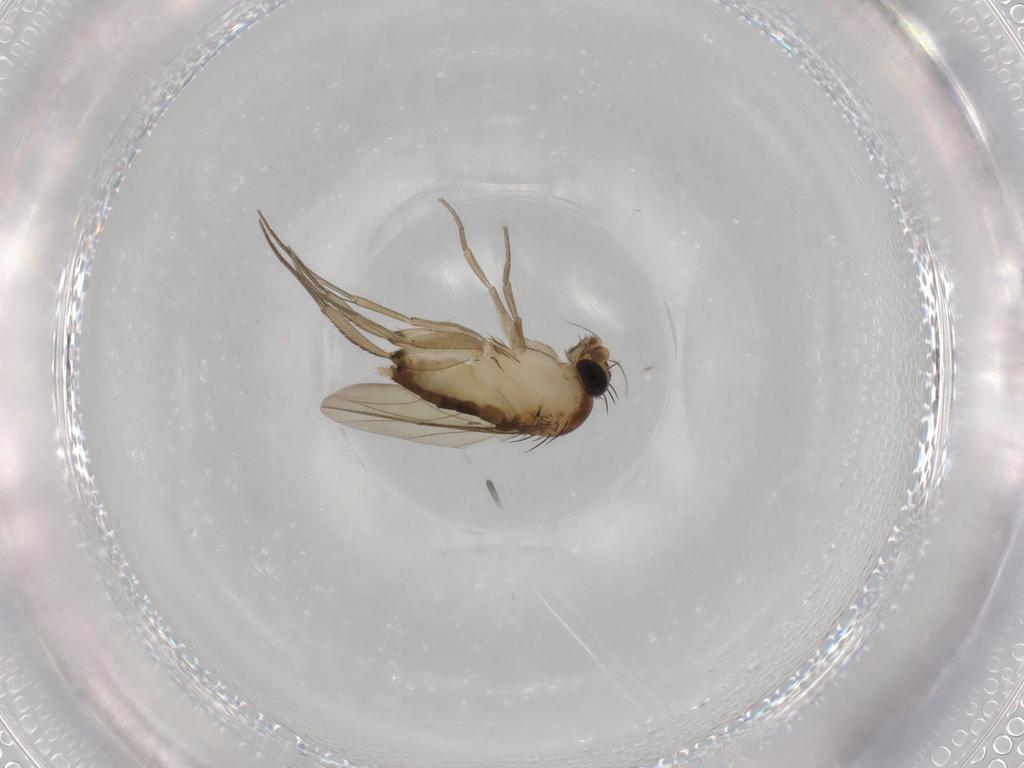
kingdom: Animalia
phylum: Arthropoda
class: Insecta
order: Diptera
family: Phoridae
